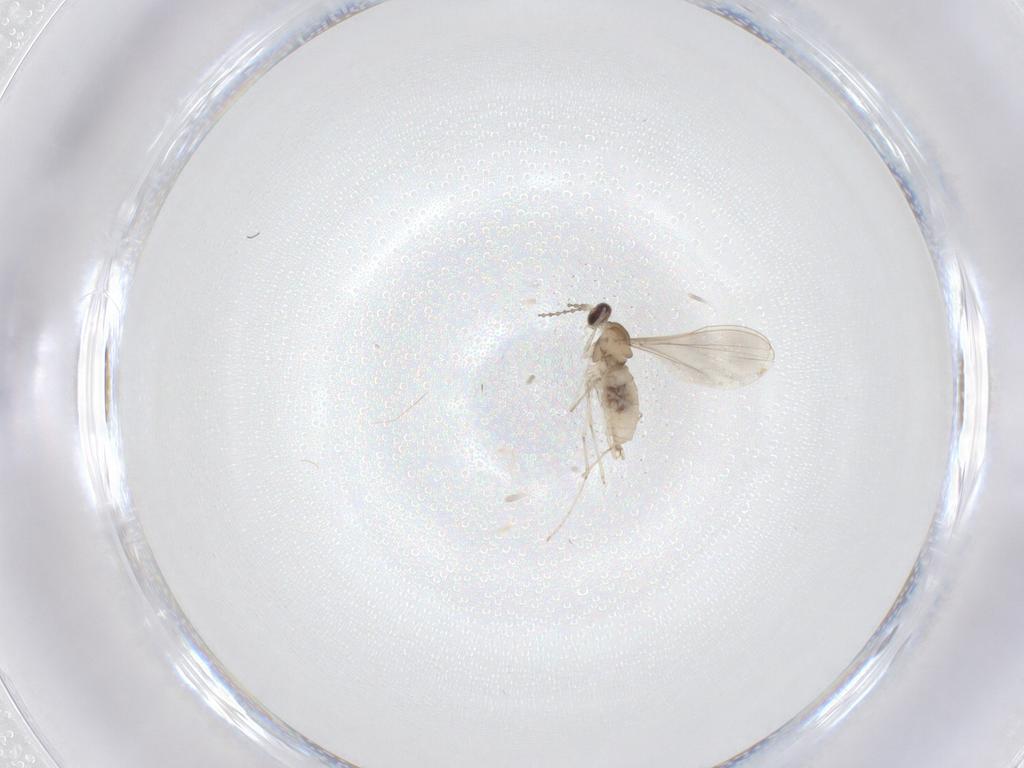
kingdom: Animalia
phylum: Arthropoda
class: Insecta
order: Diptera
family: Cecidomyiidae
